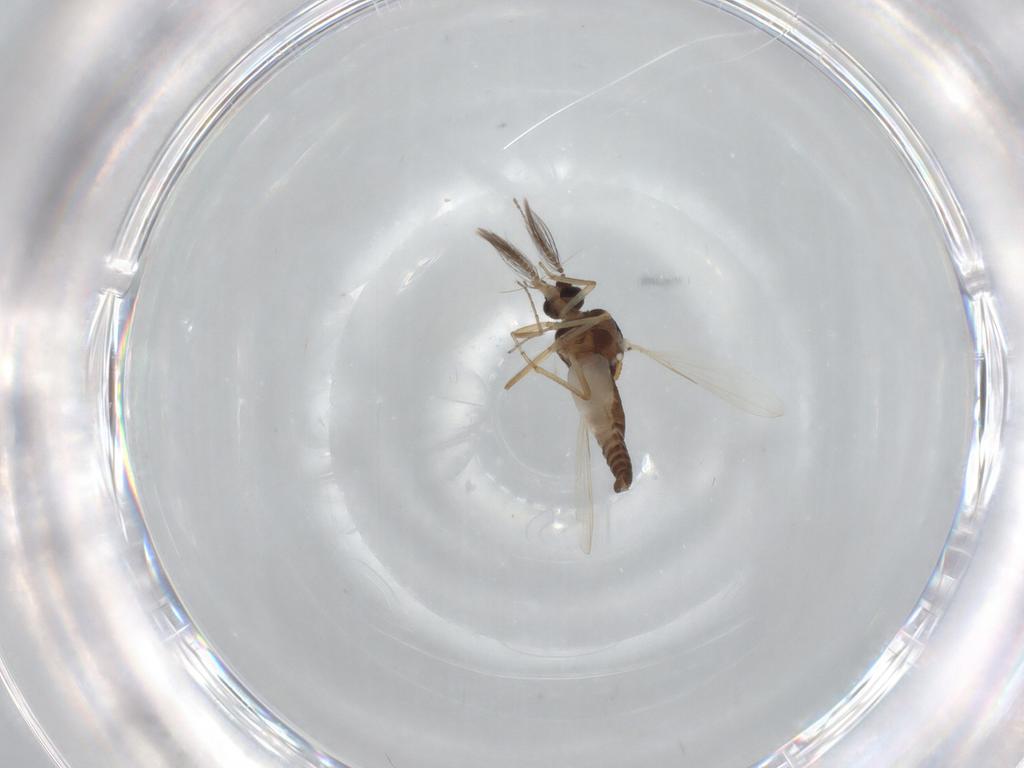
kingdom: Animalia
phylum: Arthropoda
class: Insecta
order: Diptera
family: Ceratopogonidae
